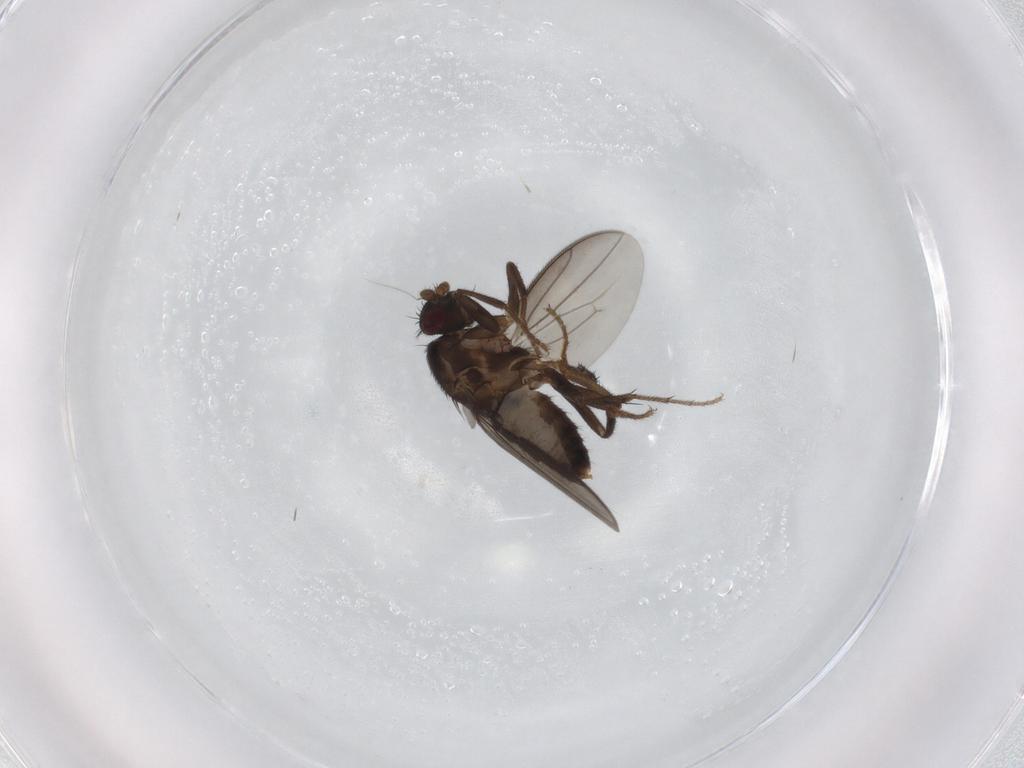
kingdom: Animalia
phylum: Arthropoda
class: Insecta
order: Diptera
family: Sphaeroceridae
